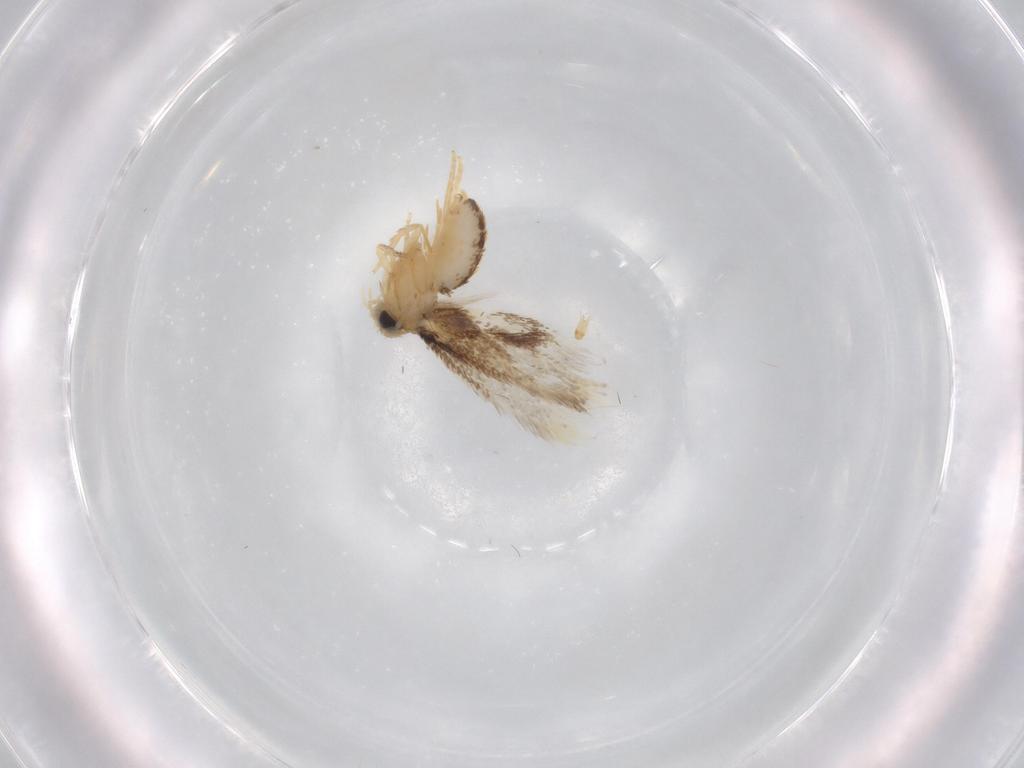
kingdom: Animalia
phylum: Arthropoda
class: Insecta
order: Lepidoptera
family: Nepticulidae
